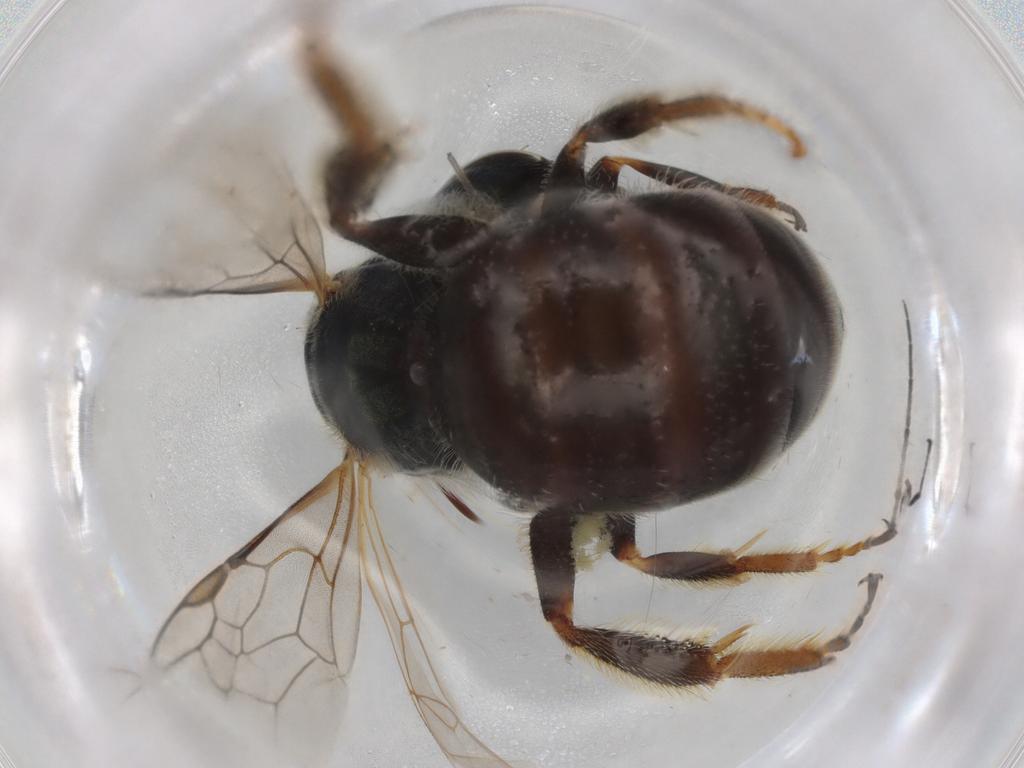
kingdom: Animalia
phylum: Arthropoda
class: Insecta
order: Hymenoptera
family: Halictidae
